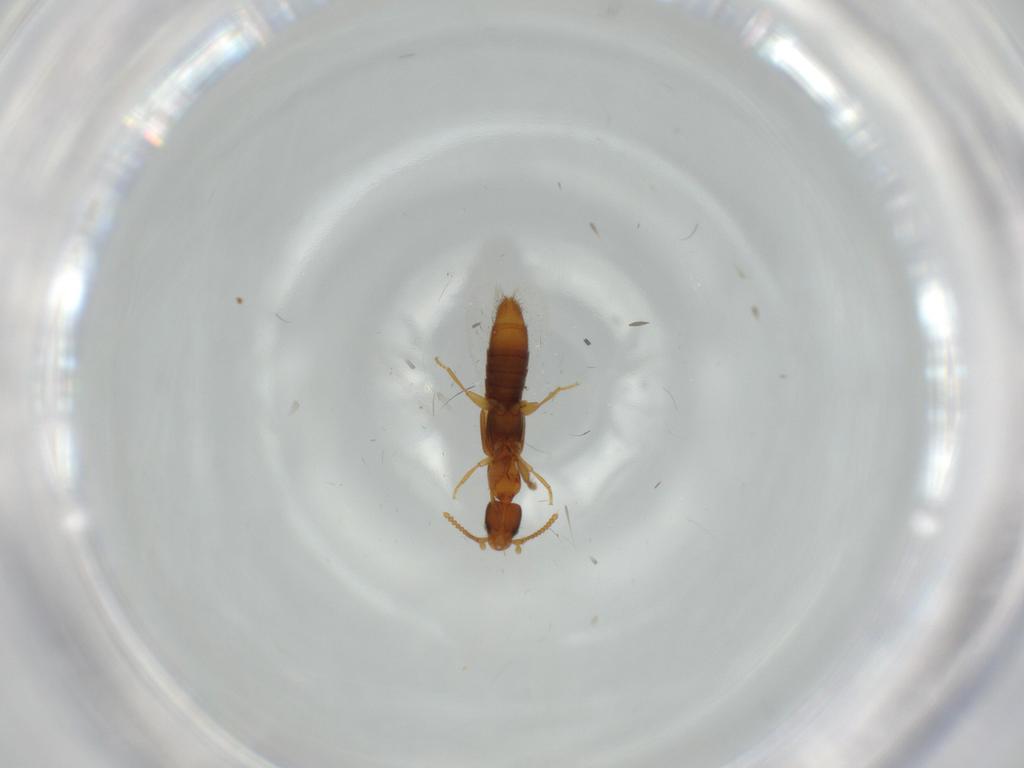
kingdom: Animalia
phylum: Arthropoda
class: Insecta
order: Coleoptera
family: Staphylinidae
